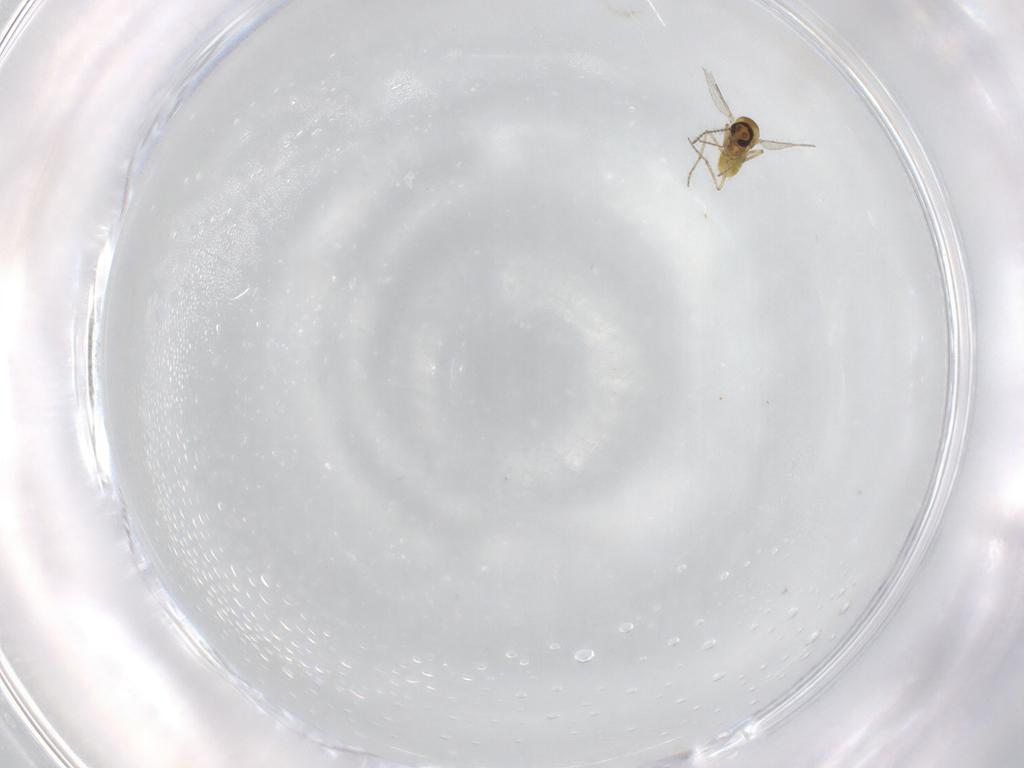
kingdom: Animalia
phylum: Arthropoda
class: Insecta
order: Diptera
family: Ceratopogonidae
